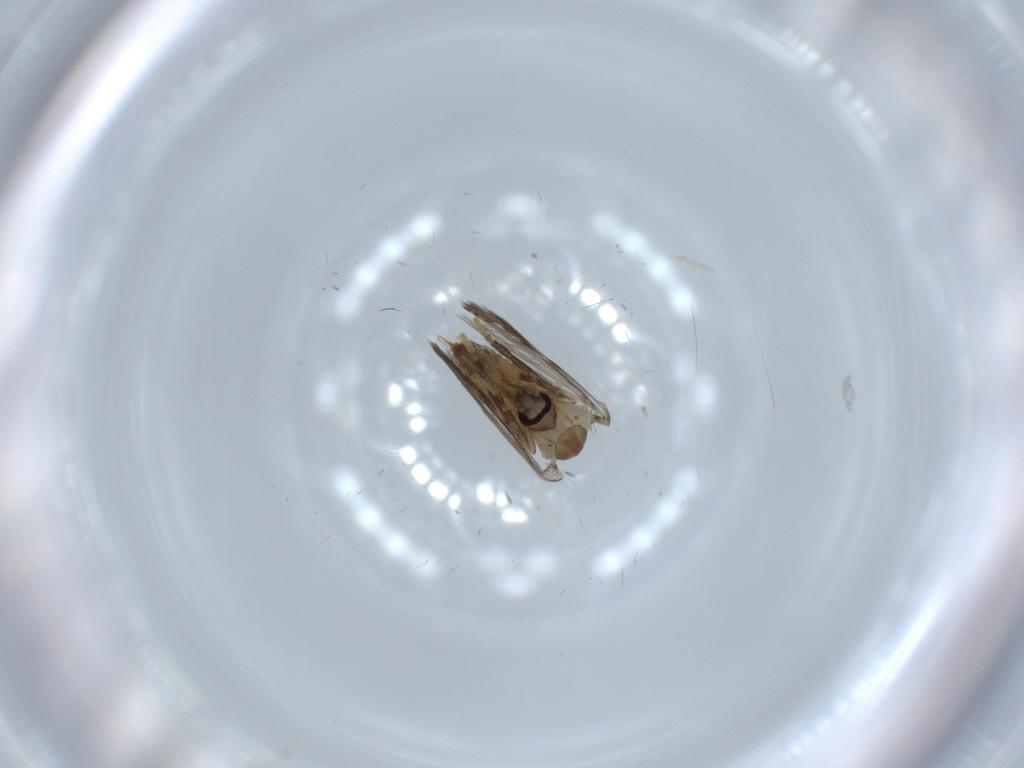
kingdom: Animalia
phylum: Arthropoda
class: Insecta
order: Diptera
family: Psychodidae
